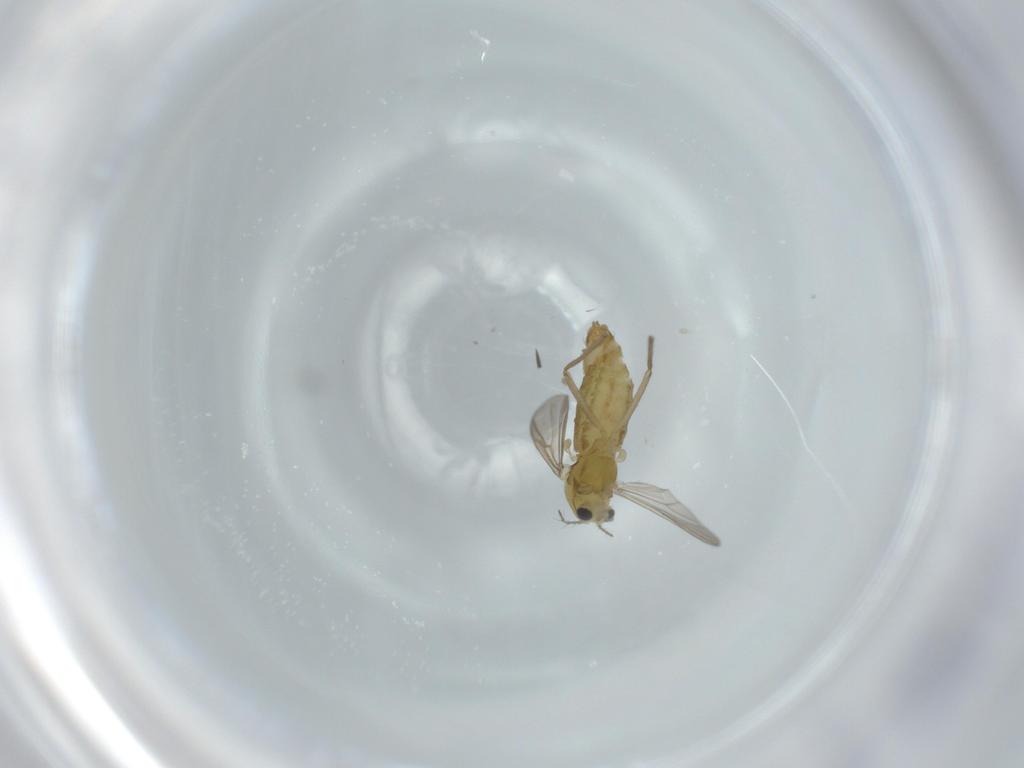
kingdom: Animalia
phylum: Arthropoda
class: Insecta
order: Diptera
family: Chironomidae
